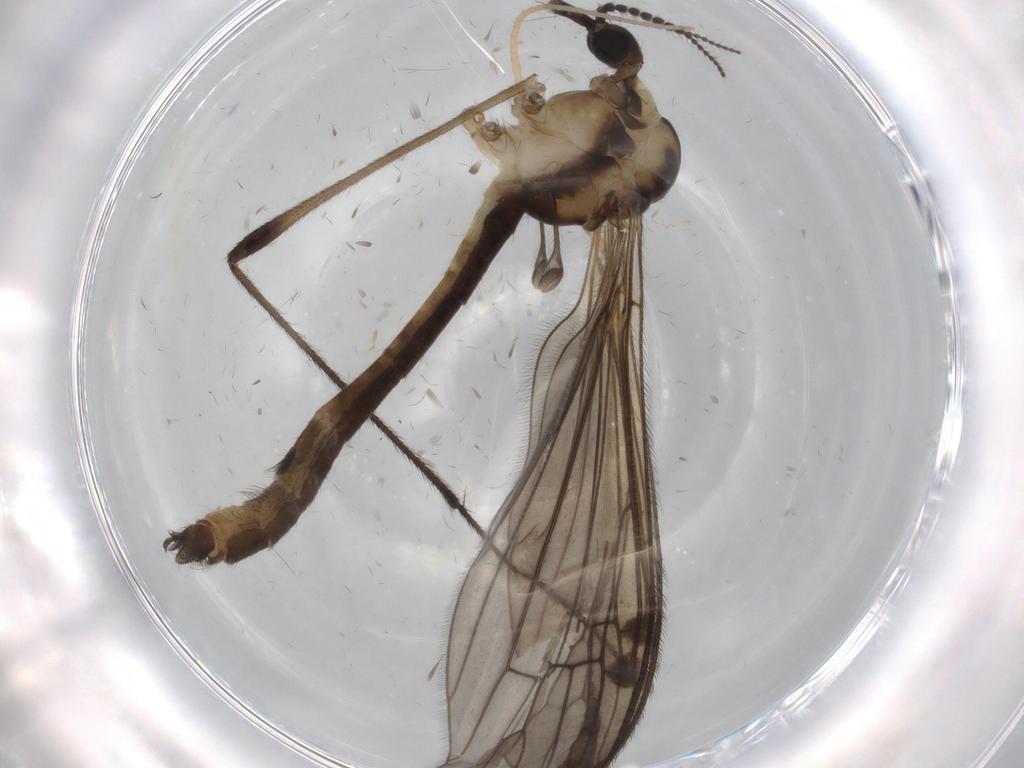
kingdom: Animalia
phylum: Arthropoda
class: Insecta
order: Diptera
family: Limoniidae
